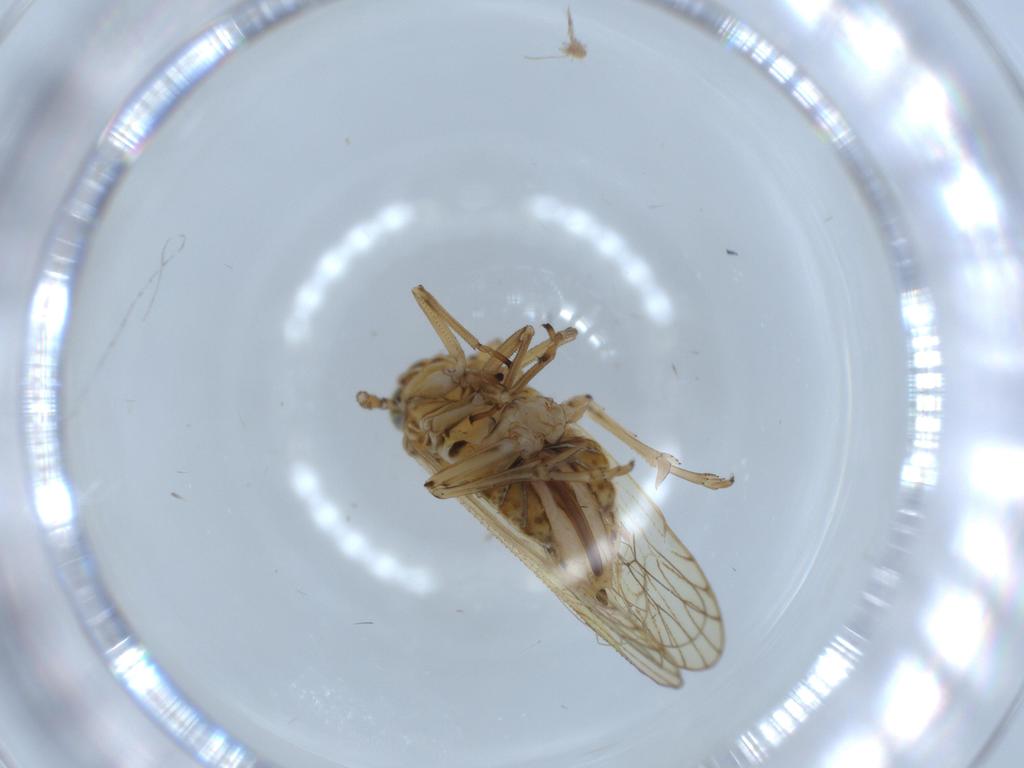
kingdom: Animalia
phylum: Arthropoda
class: Insecta
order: Hemiptera
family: Delphacidae
